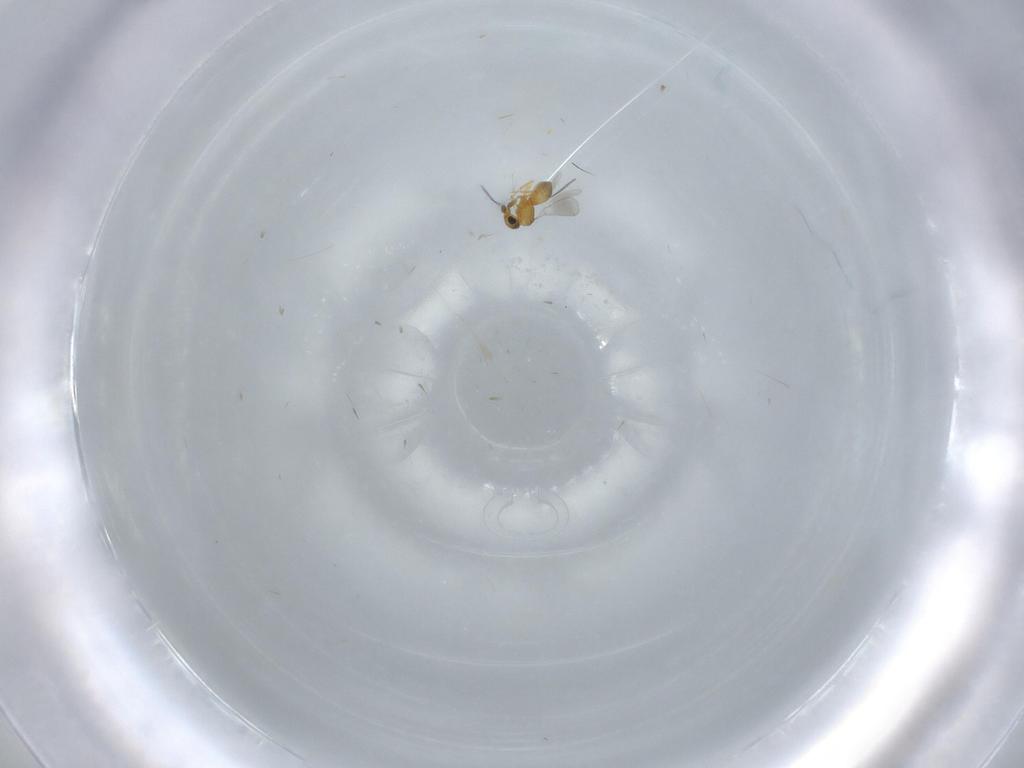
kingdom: Animalia
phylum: Arthropoda
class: Insecta
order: Hymenoptera
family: Platygastridae
